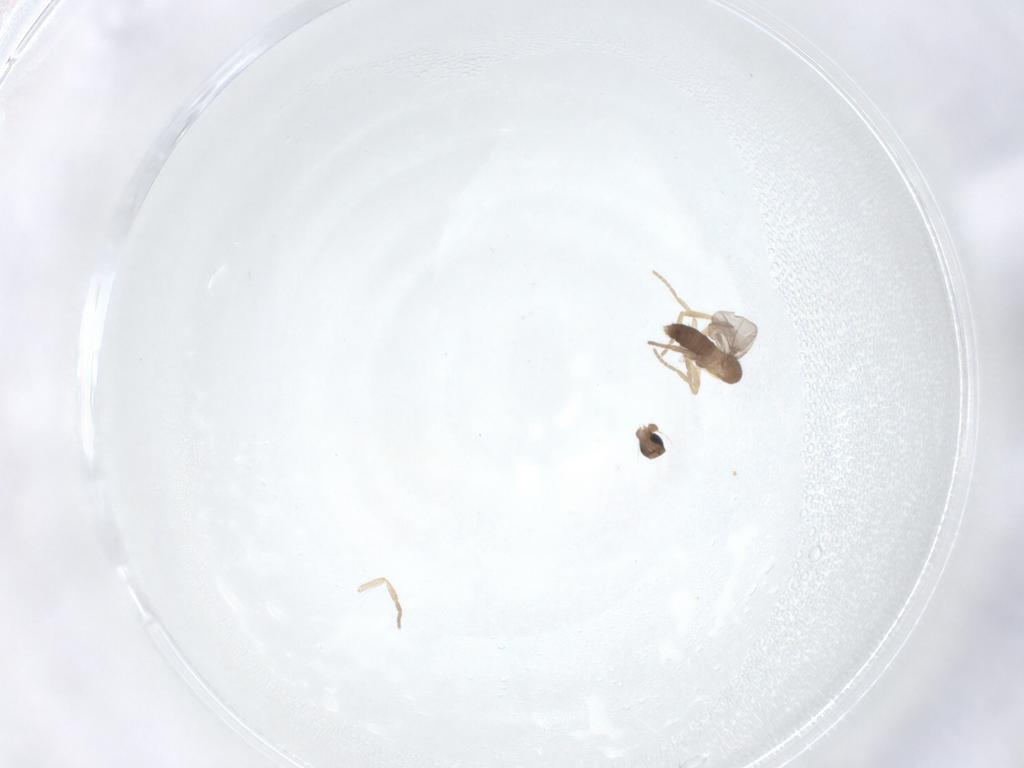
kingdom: Animalia
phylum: Arthropoda
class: Insecta
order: Diptera
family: Phoridae
